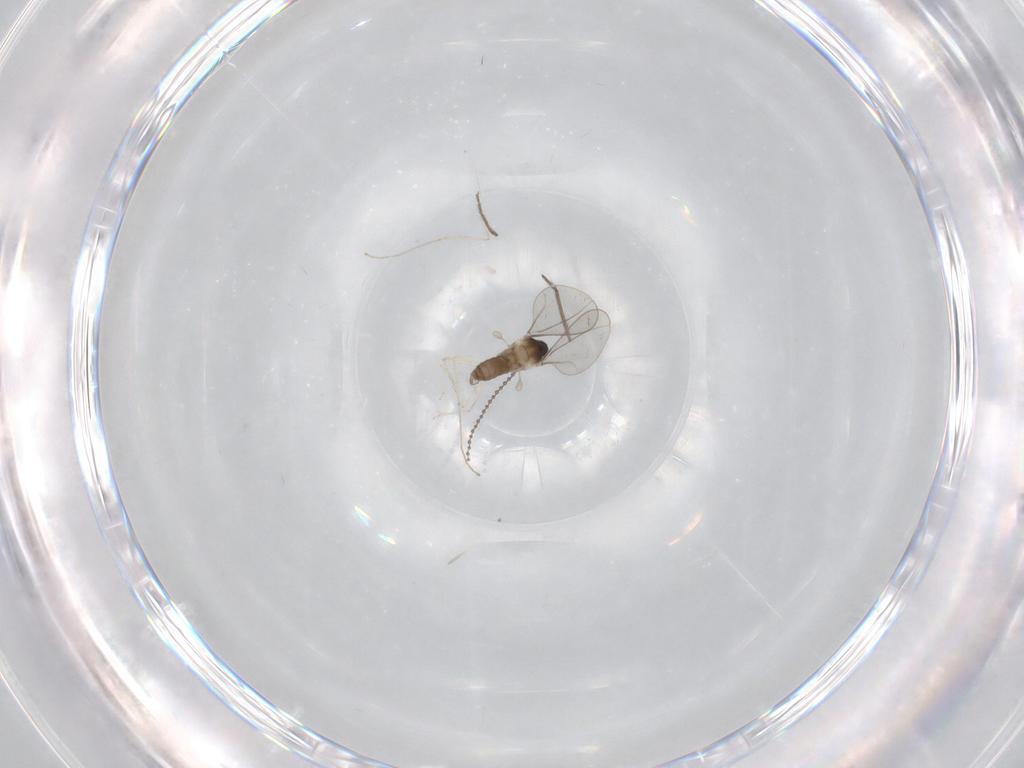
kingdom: Animalia
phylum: Arthropoda
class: Insecta
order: Diptera
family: Cecidomyiidae
